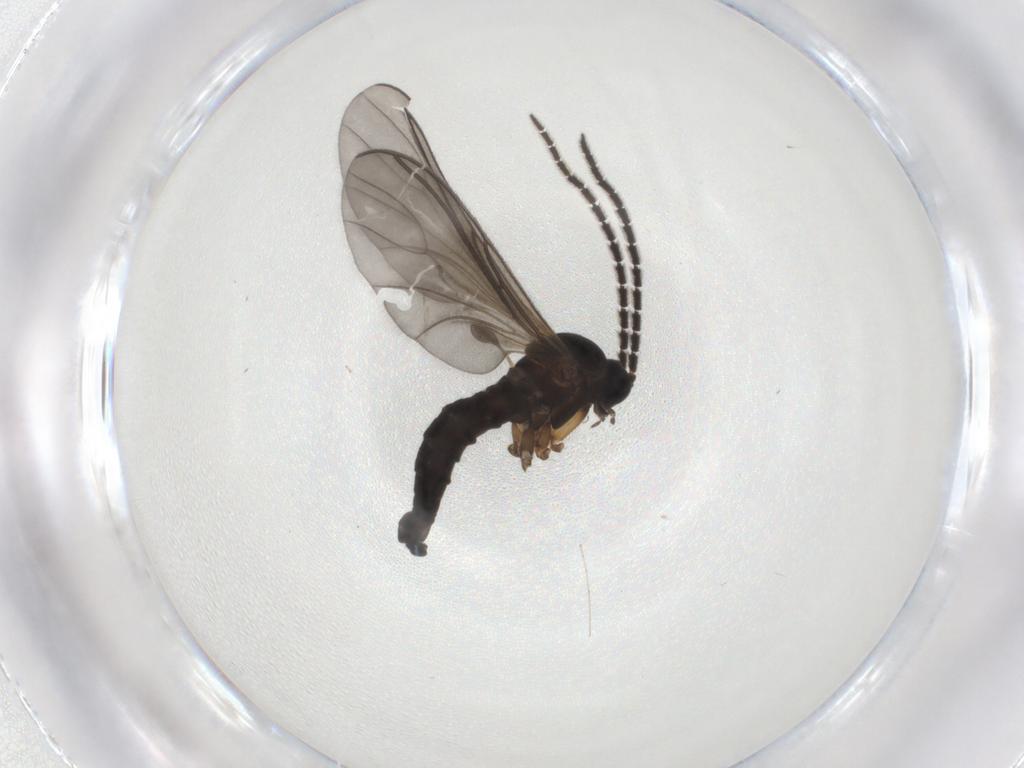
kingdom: Animalia
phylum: Arthropoda
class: Insecta
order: Diptera
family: Sciaridae
